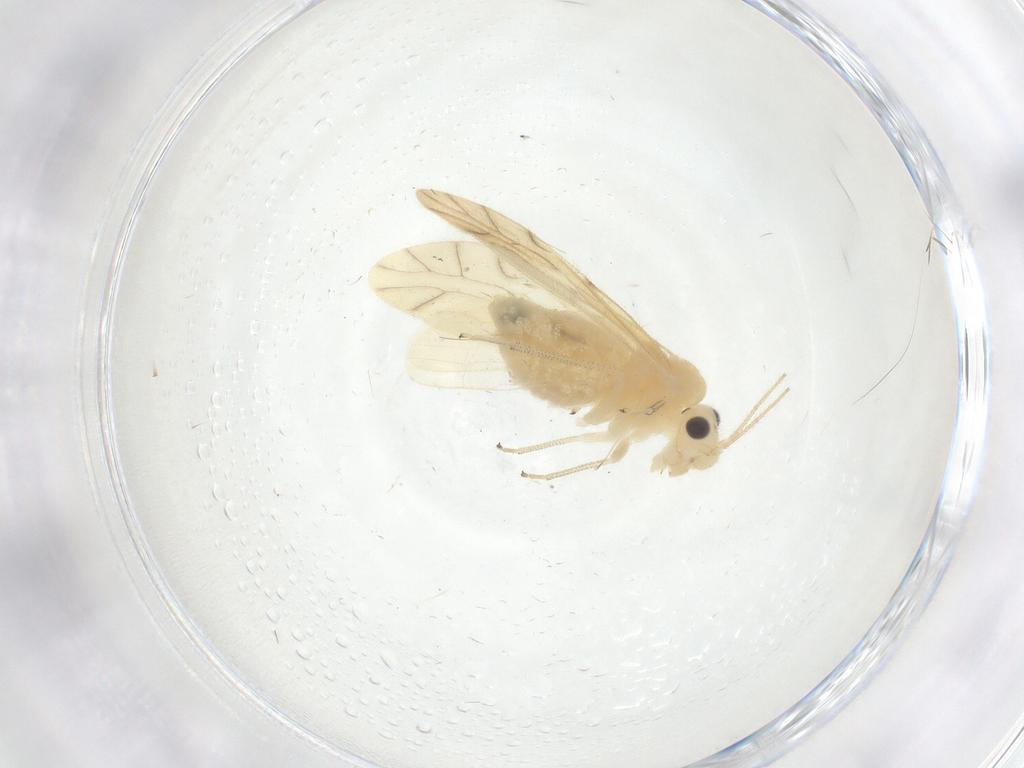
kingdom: Animalia
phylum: Arthropoda
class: Insecta
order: Psocodea
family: Caeciliusidae
